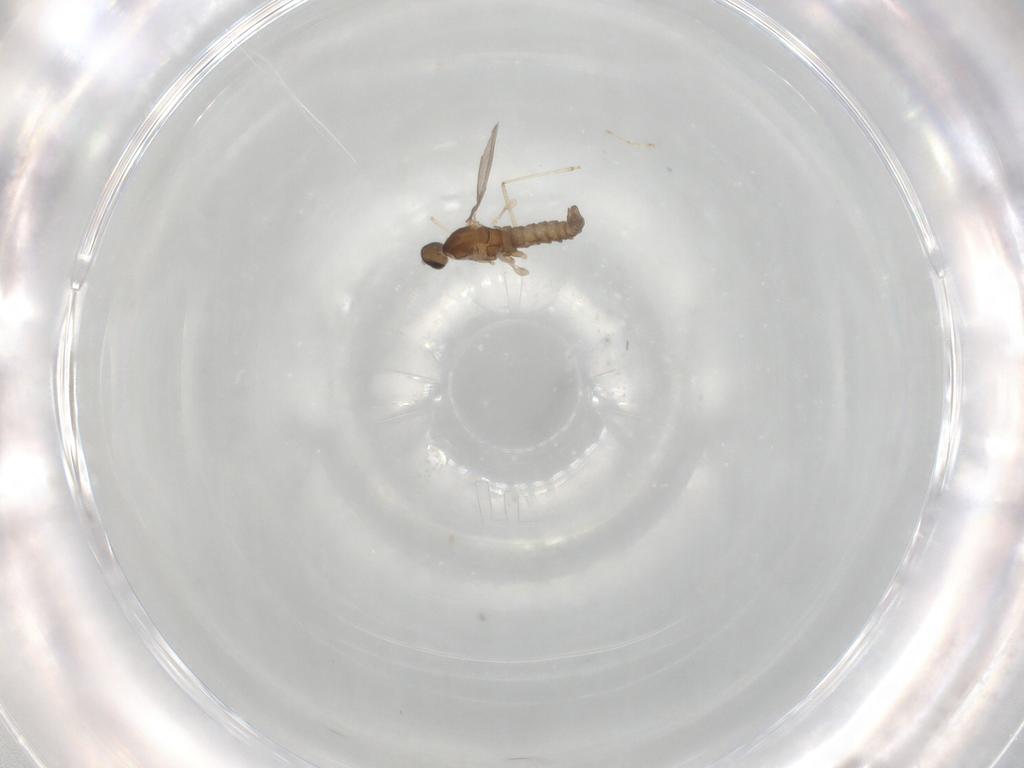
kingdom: Animalia
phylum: Arthropoda
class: Insecta
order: Diptera
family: Cecidomyiidae
